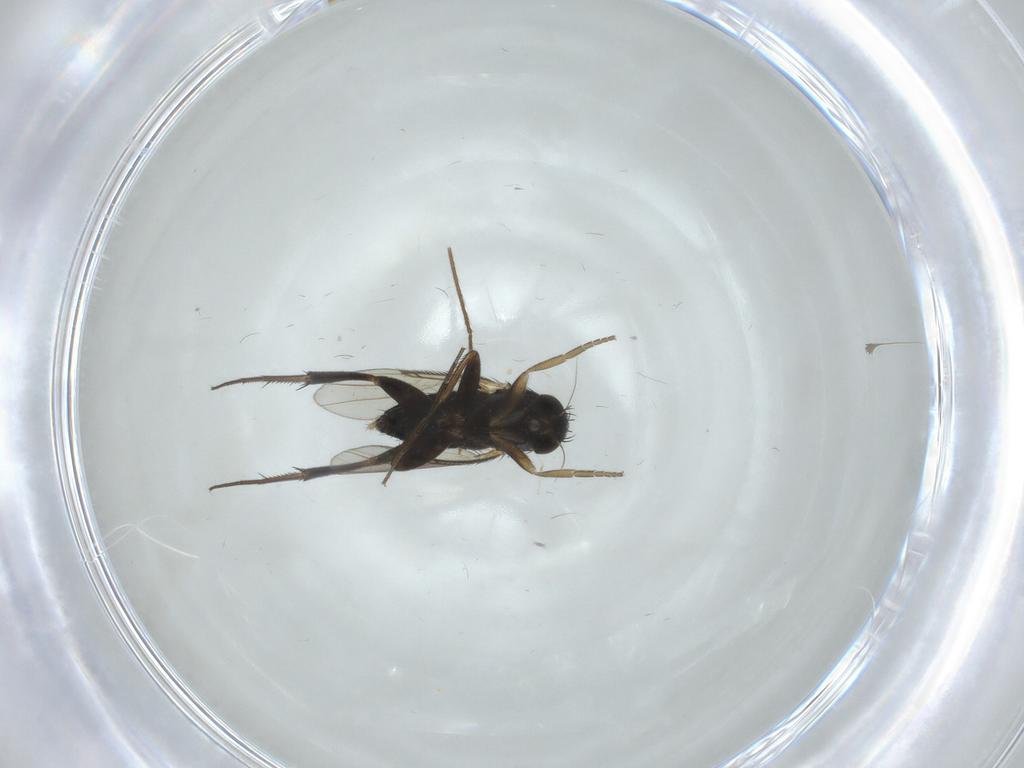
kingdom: Animalia
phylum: Arthropoda
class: Insecta
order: Diptera
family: Phoridae
